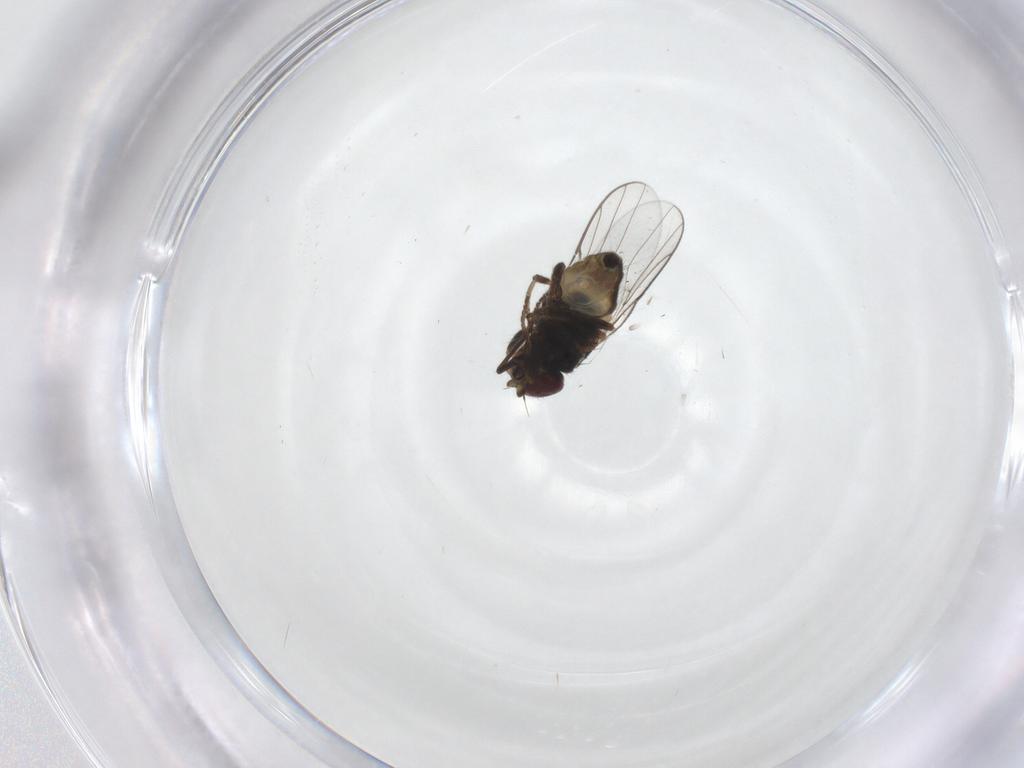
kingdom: Animalia
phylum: Arthropoda
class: Insecta
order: Diptera
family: Chloropidae
